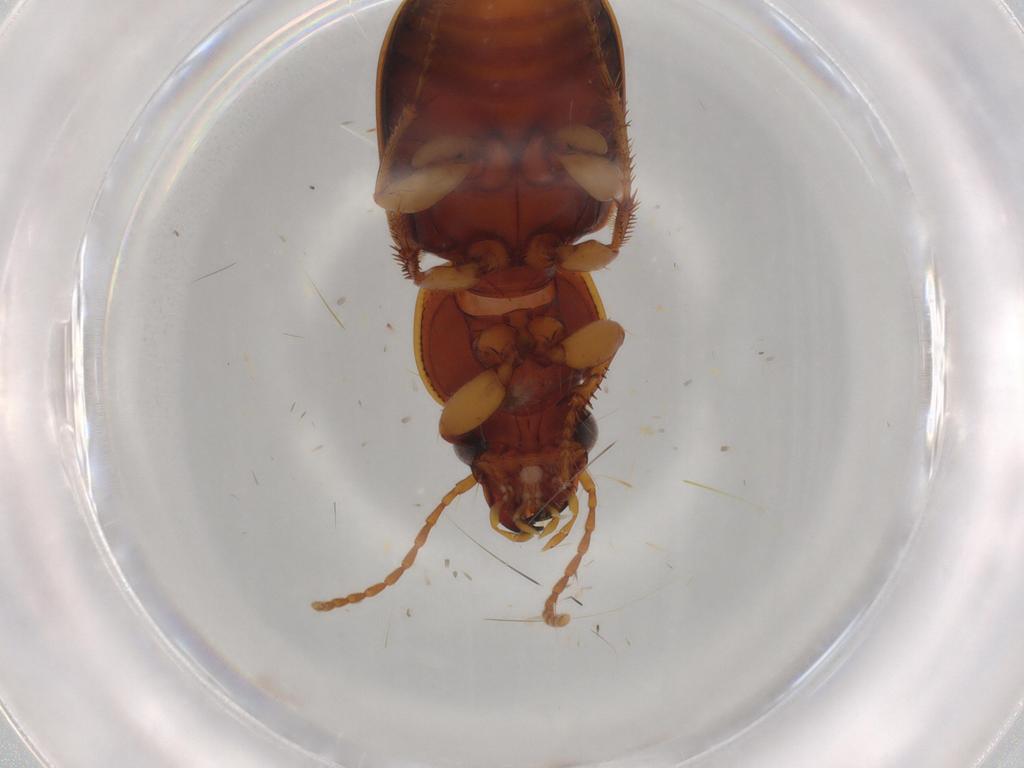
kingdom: Animalia
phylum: Arthropoda
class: Insecta
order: Coleoptera
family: Carabidae
